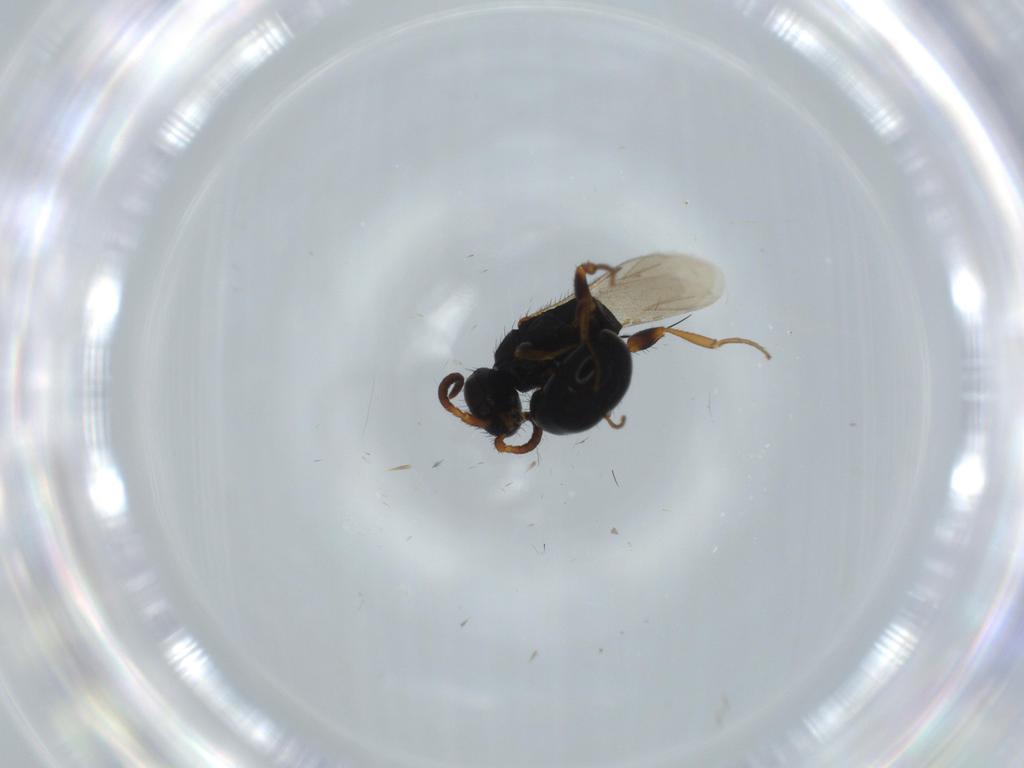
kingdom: Animalia
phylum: Arthropoda
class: Insecta
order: Hymenoptera
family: Bethylidae
